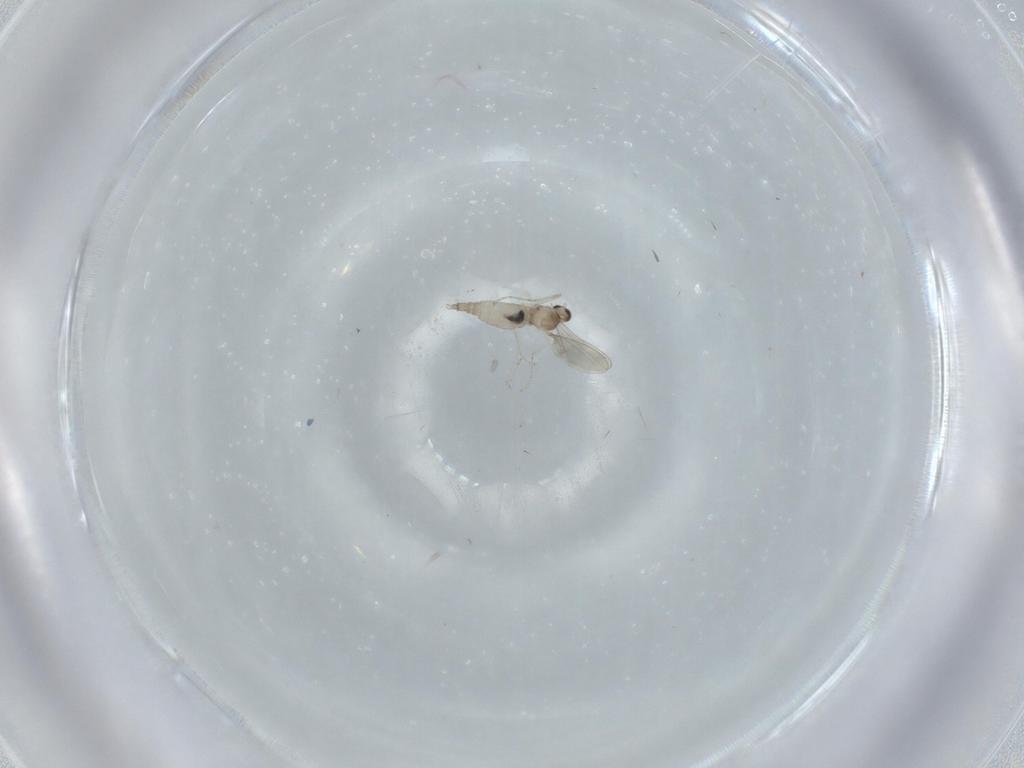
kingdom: Animalia
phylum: Arthropoda
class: Insecta
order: Diptera
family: Cecidomyiidae
